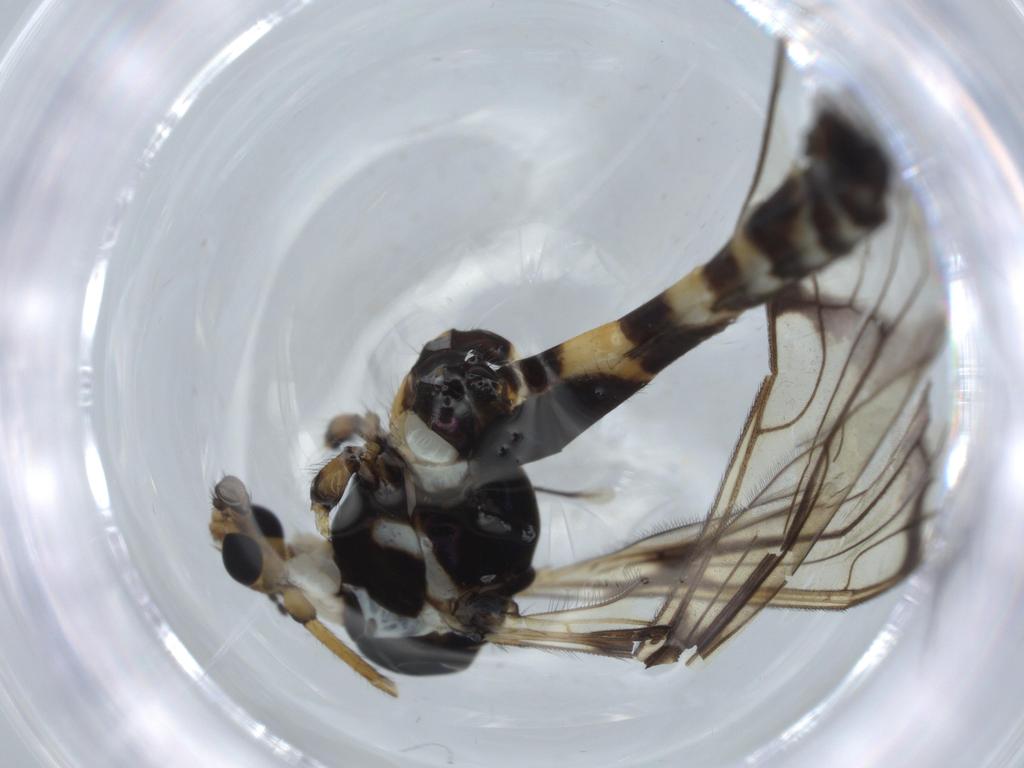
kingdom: Animalia
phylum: Arthropoda
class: Insecta
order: Diptera
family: Limoniidae
